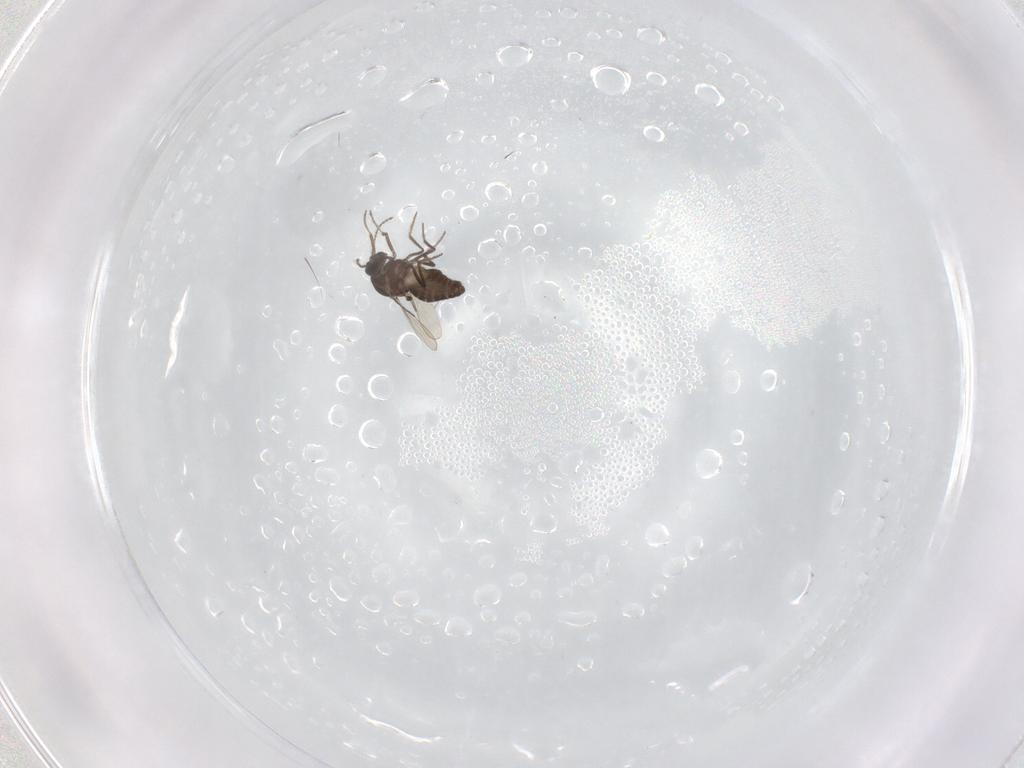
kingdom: Animalia
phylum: Arthropoda
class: Insecta
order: Diptera
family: Ceratopogonidae
